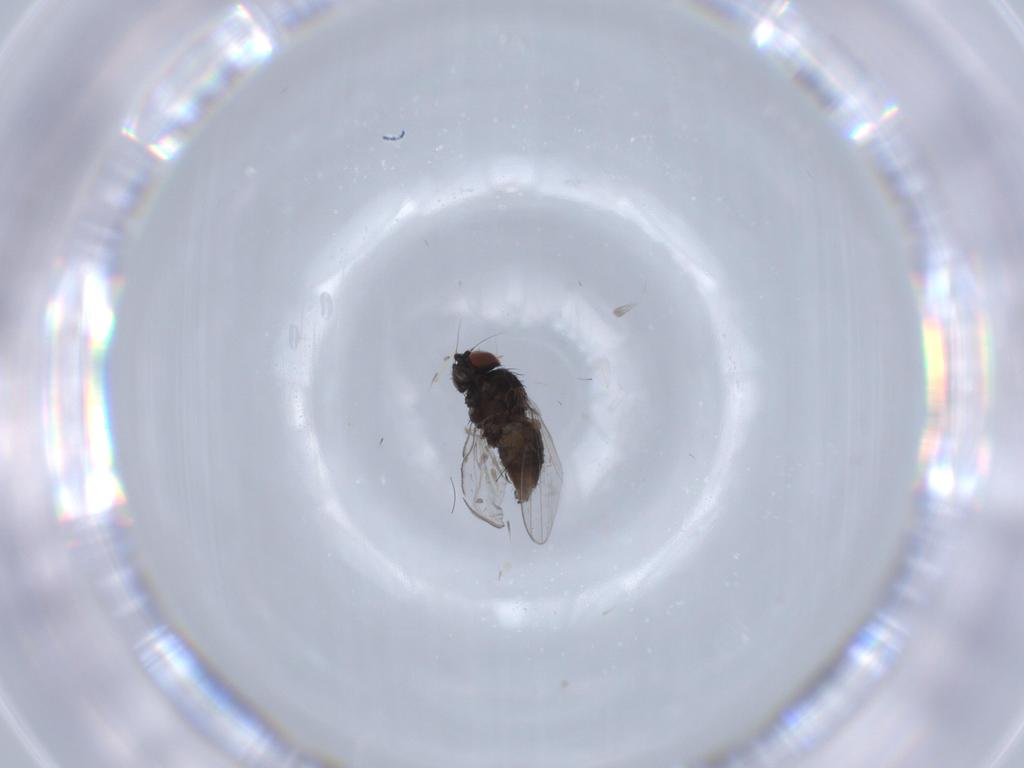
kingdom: Animalia
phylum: Arthropoda
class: Insecta
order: Diptera
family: Milichiidae
